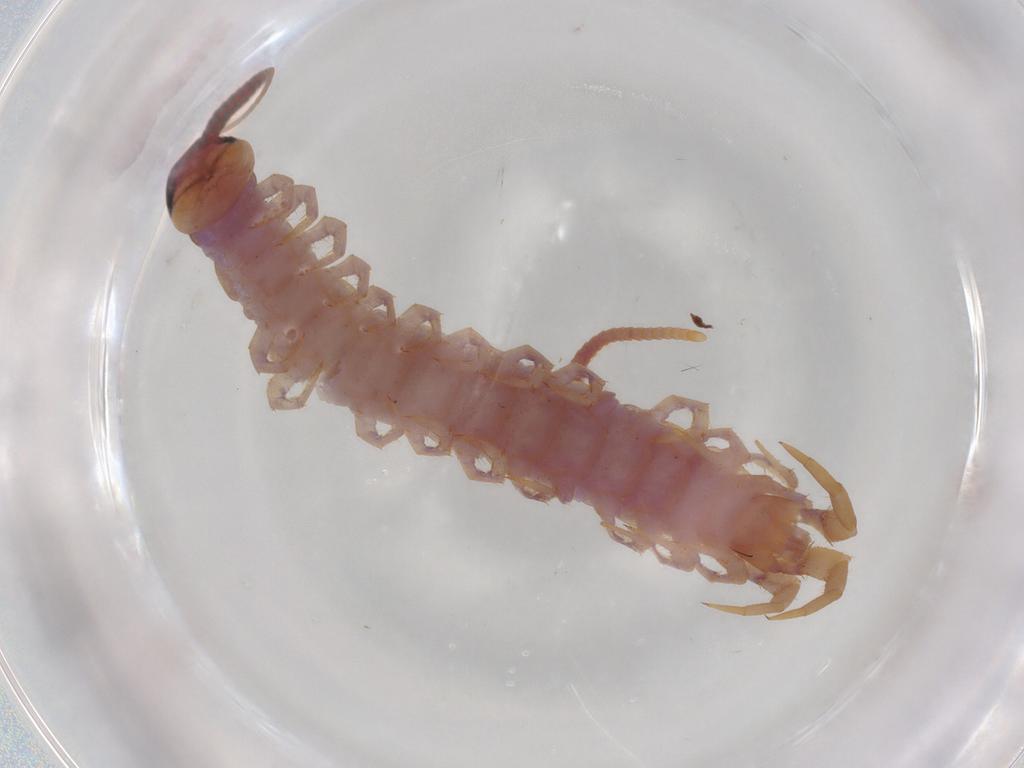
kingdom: Animalia
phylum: Arthropoda
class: Chilopoda
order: Lithobiomorpha
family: Lithobiidae
